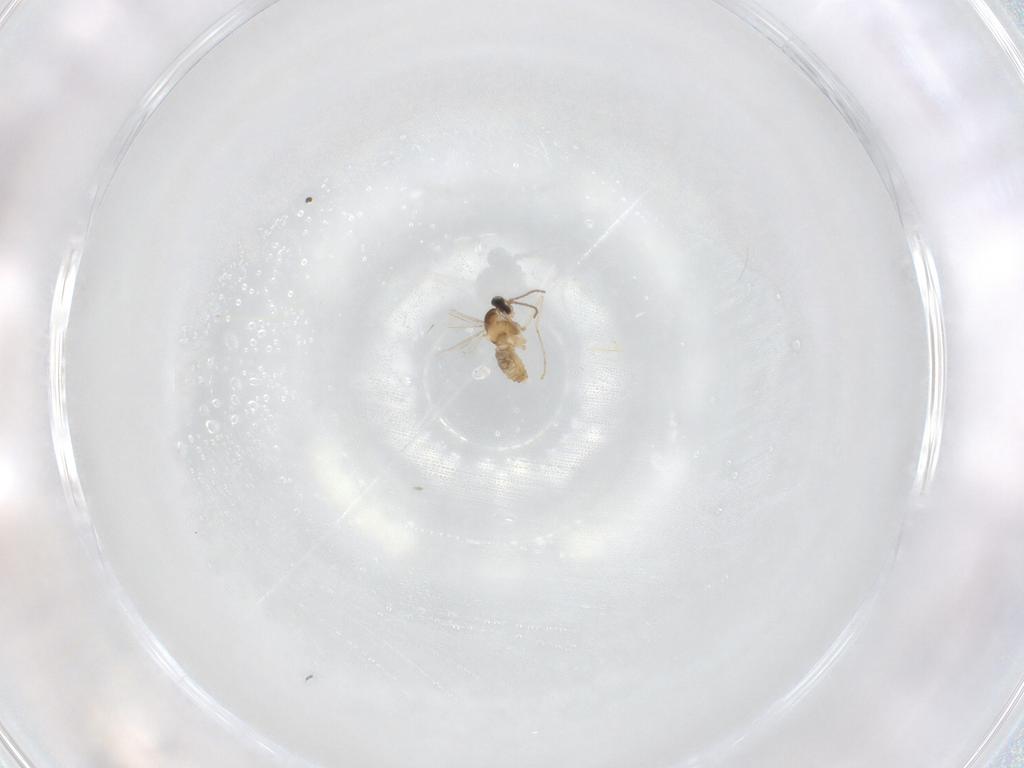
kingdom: Animalia
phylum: Arthropoda
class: Insecta
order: Diptera
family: Cecidomyiidae
